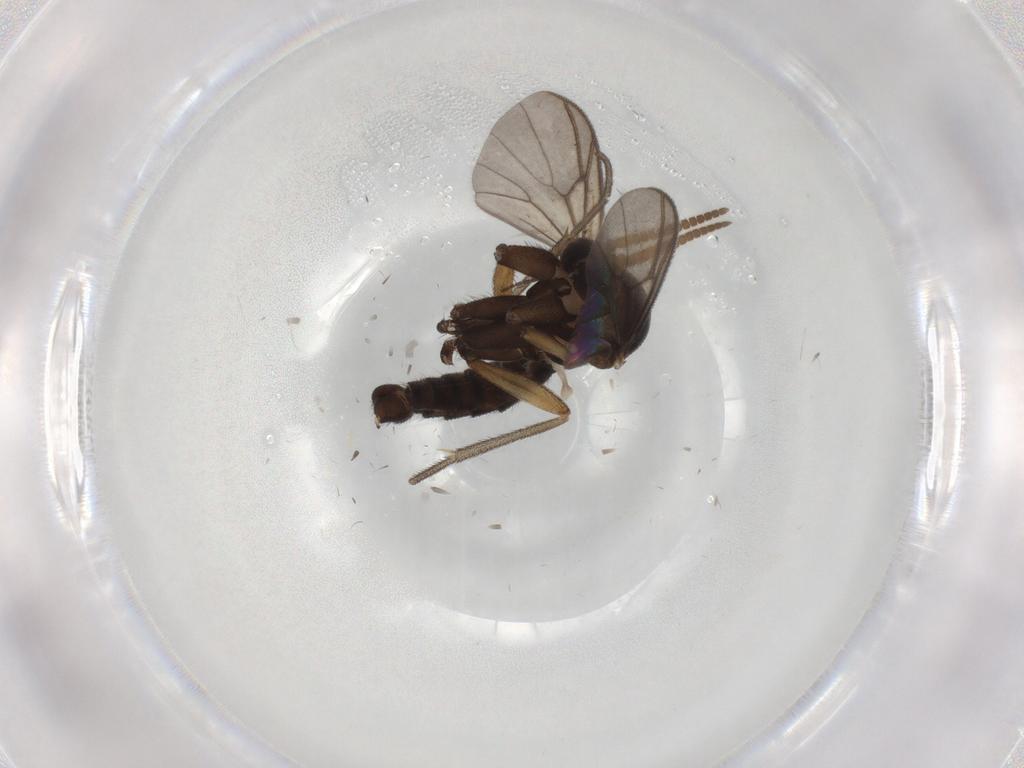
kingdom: Animalia
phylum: Arthropoda
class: Insecta
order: Diptera
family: Mycetophilidae
